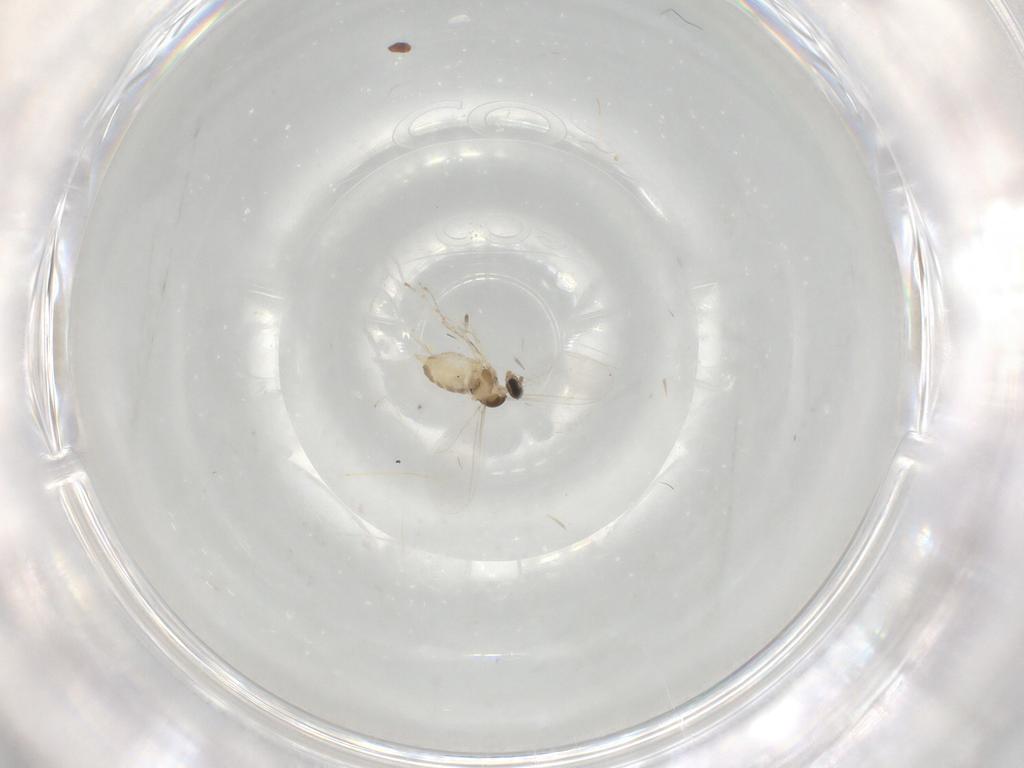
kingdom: Animalia
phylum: Arthropoda
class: Insecta
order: Diptera
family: Cecidomyiidae
